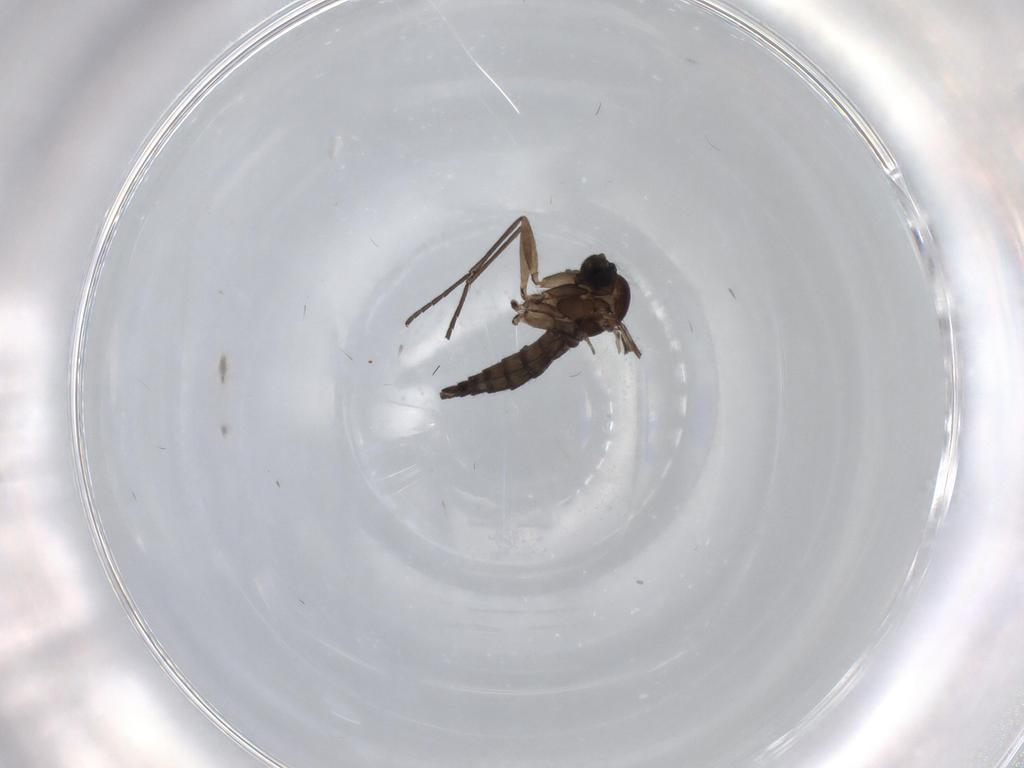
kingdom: Animalia
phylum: Arthropoda
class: Insecta
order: Diptera
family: Sciaridae
